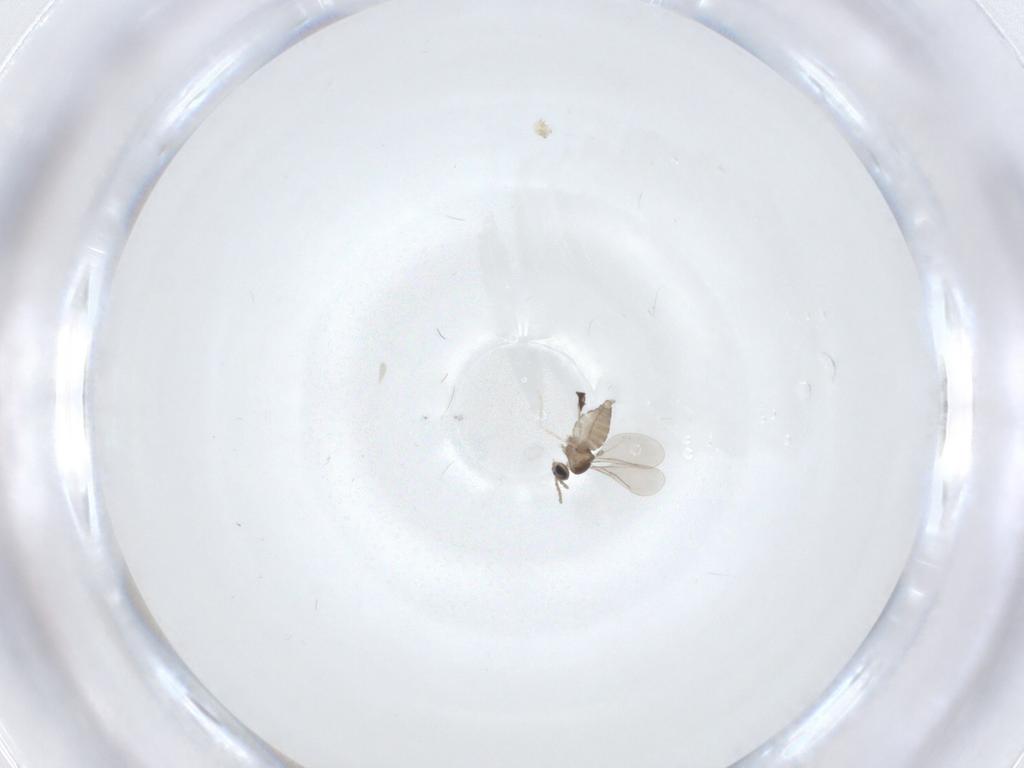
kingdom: Animalia
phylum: Arthropoda
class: Insecta
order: Diptera
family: Cecidomyiidae
